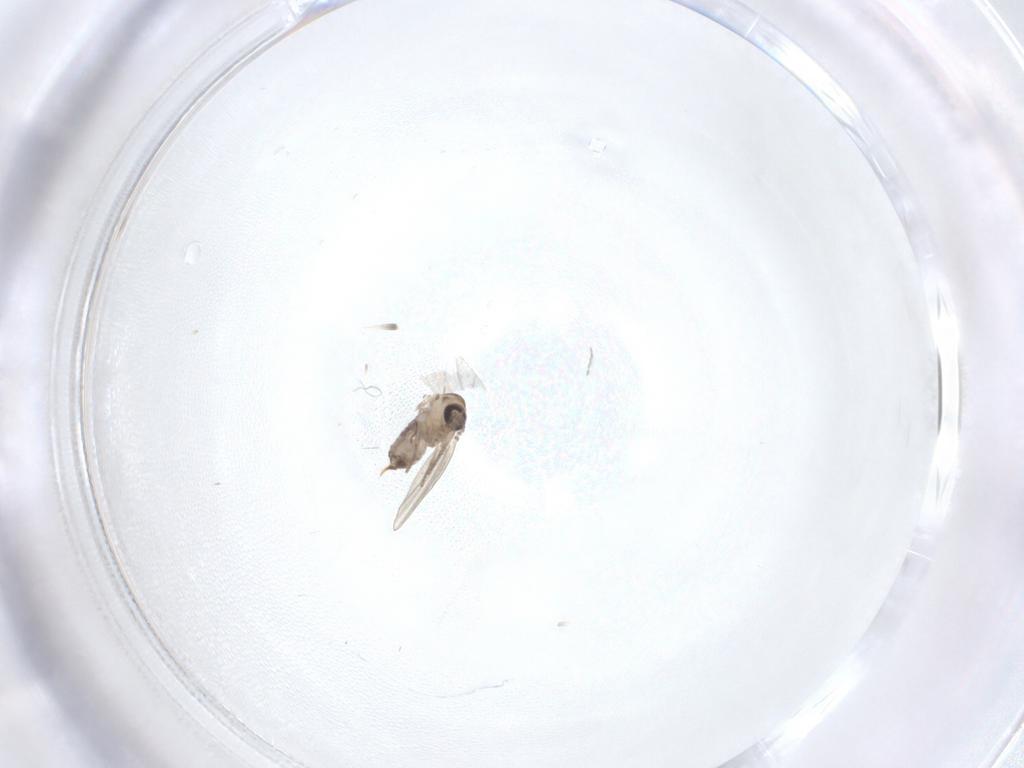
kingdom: Animalia
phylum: Arthropoda
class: Insecta
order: Diptera
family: Psychodidae
